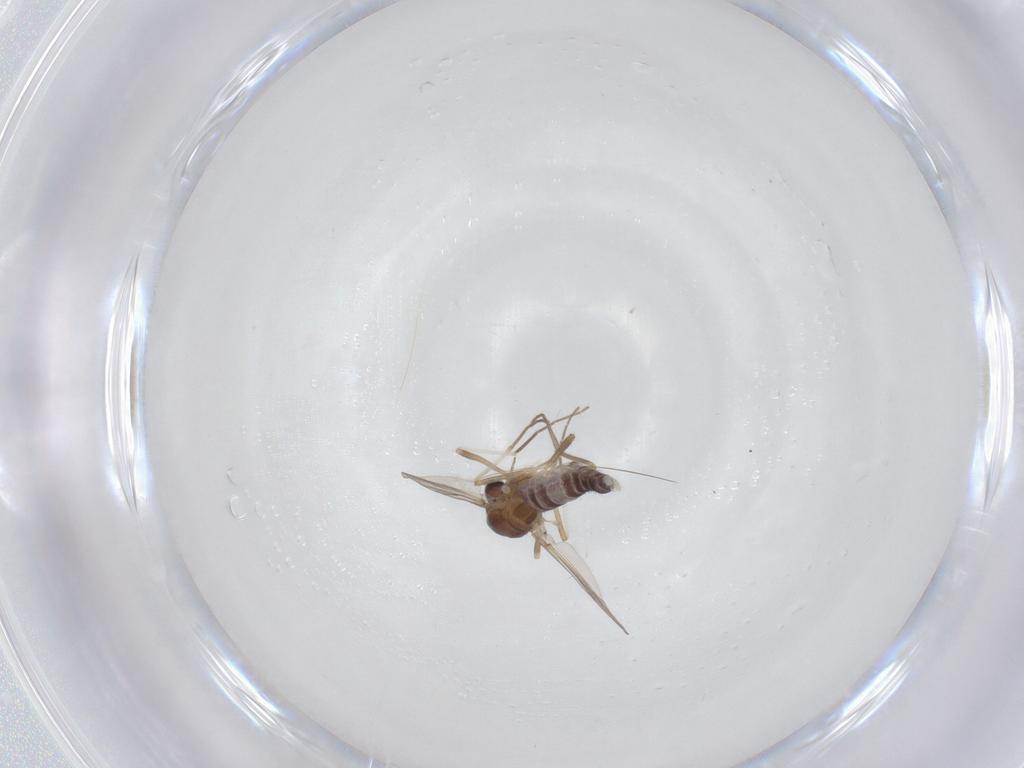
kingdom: Animalia
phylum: Arthropoda
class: Insecta
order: Diptera
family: Chironomidae
